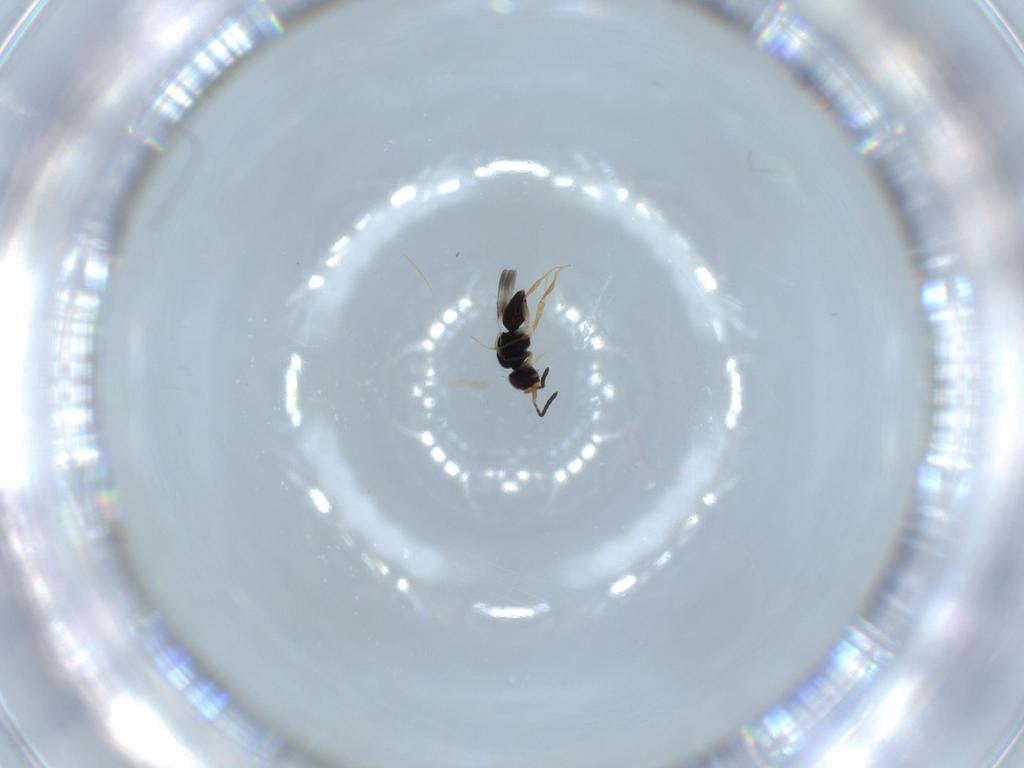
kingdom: Animalia
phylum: Arthropoda
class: Insecta
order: Hymenoptera
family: Ceraphronidae
